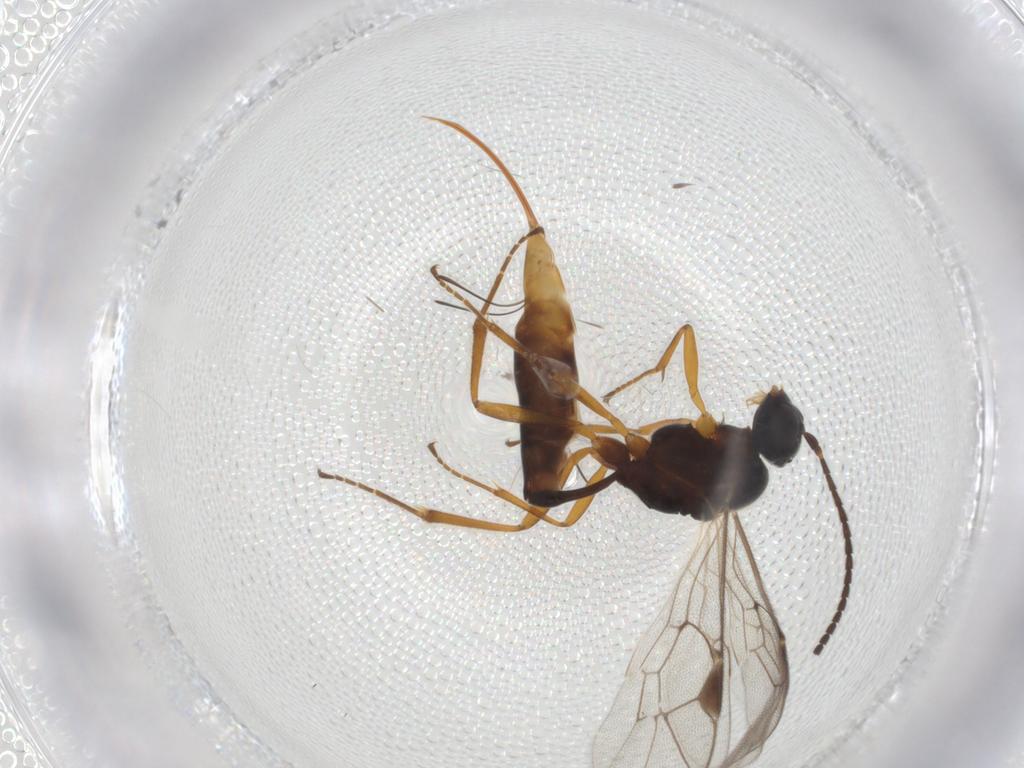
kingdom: Animalia
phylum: Arthropoda
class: Insecta
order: Hymenoptera
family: Ichneumonidae
